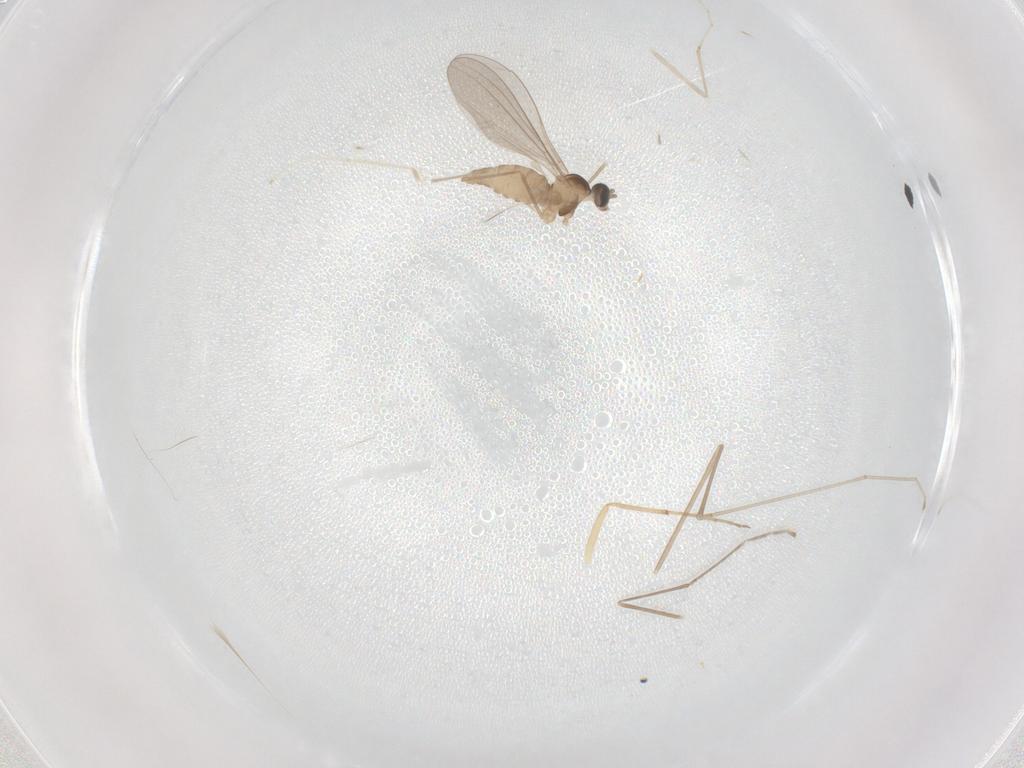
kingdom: Animalia
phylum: Arthropoda
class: Insecta
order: Diptera
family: Cecidomyiidae
